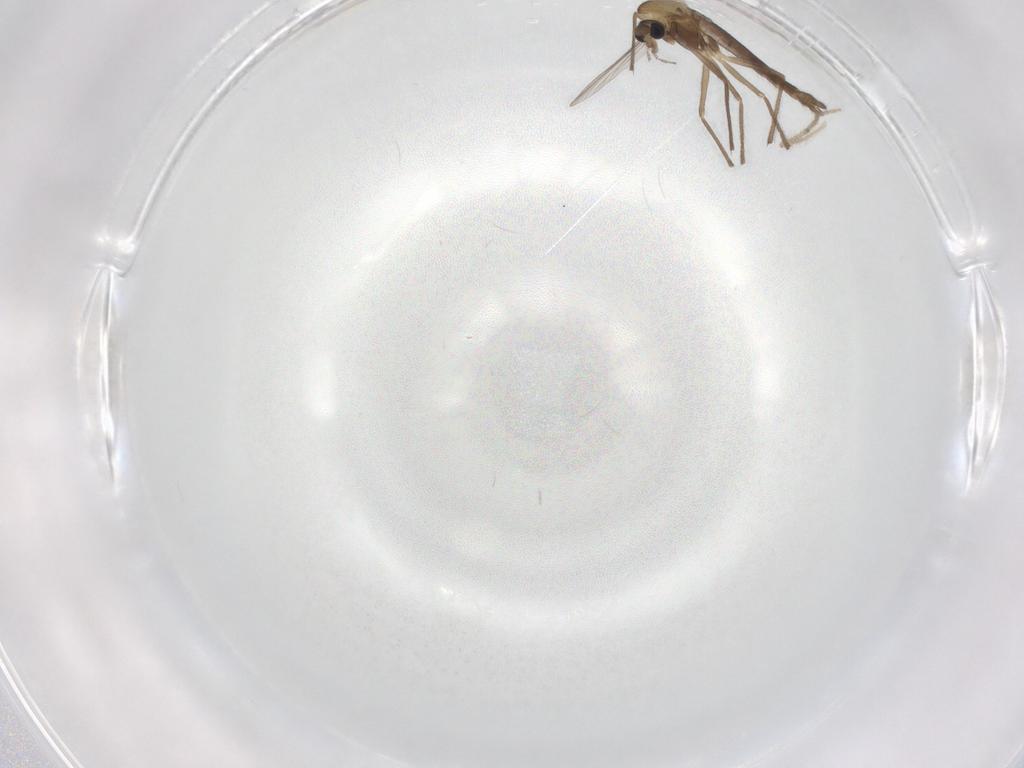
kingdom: Animalia
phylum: Arthropoda
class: Insecta
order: Diptera
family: Chironomidae
